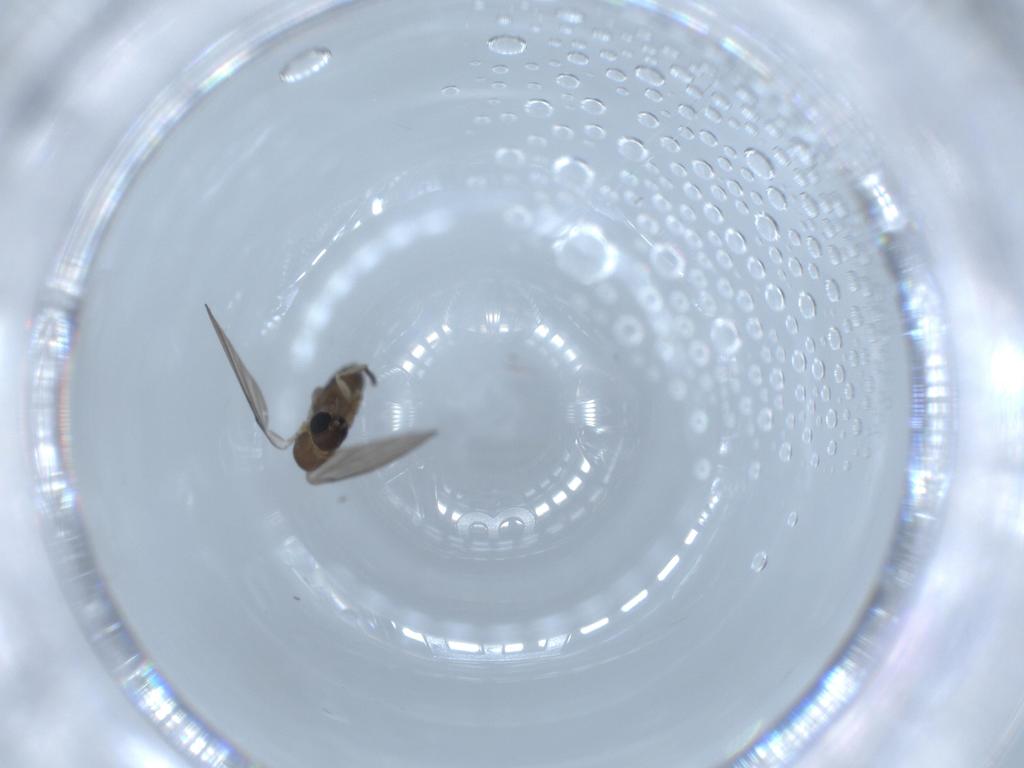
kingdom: Animalia
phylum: Arthropoda
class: Insecta
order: Diptera
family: Psychodidae
